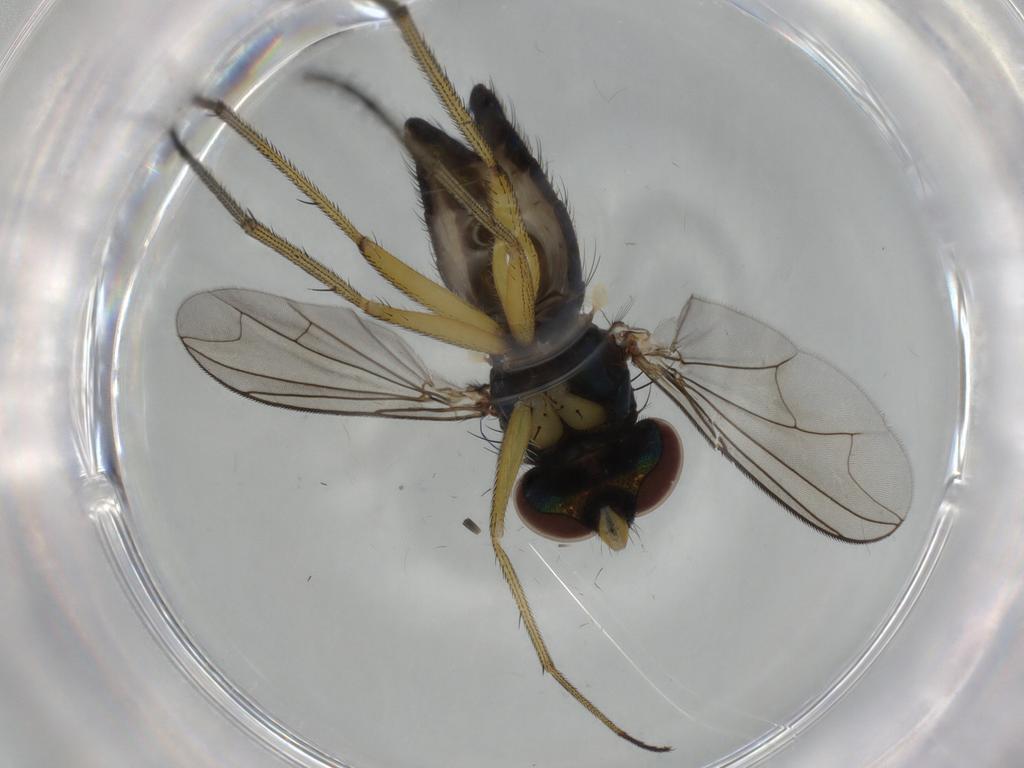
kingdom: Animalia
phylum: Arthropoda
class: Insecta
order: Diptera
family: Dolichopodidae
